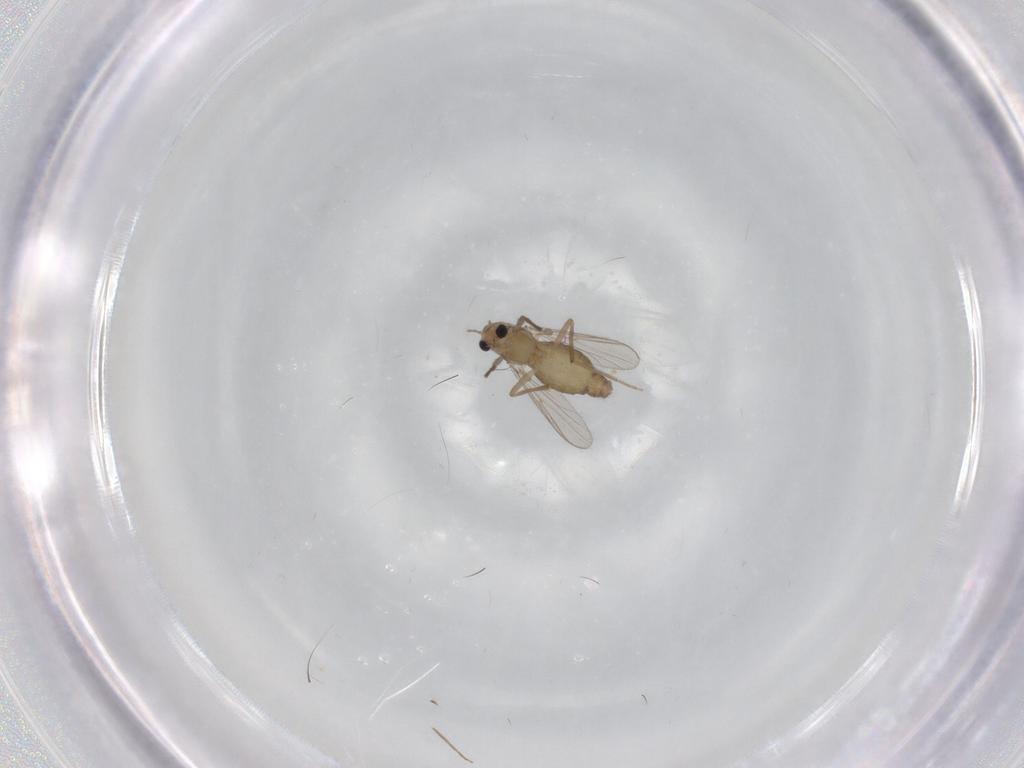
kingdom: Animalia
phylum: Arthropoda
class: Insecta
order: Diptera
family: Chironomidae
